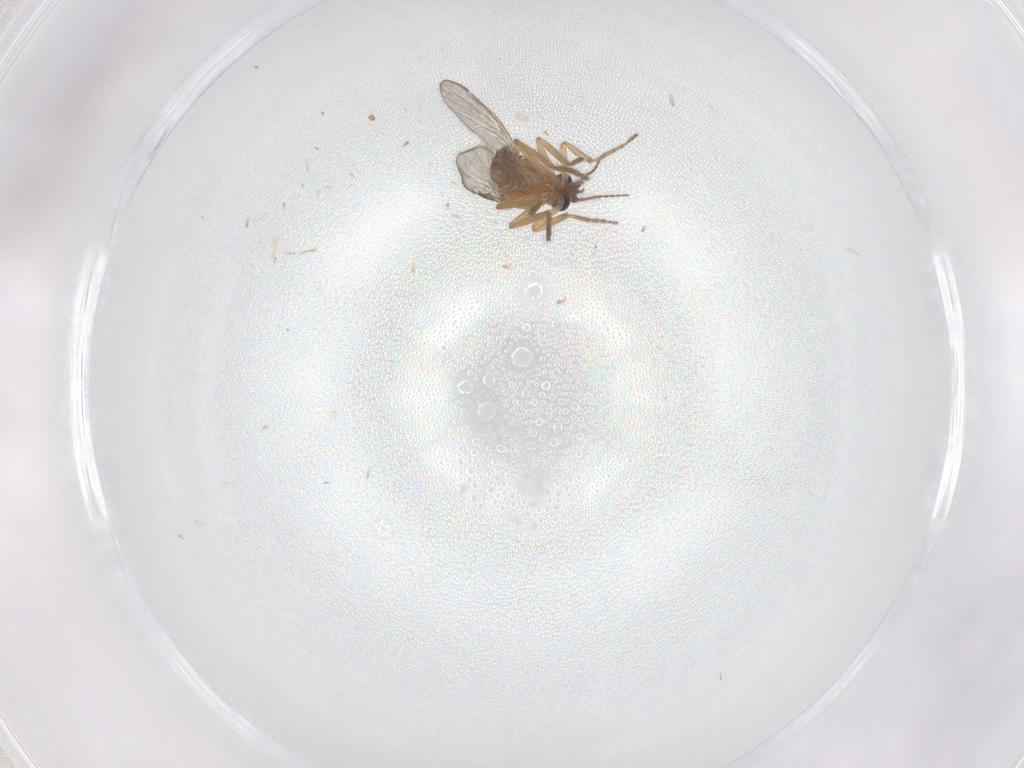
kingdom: Animalia
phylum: Arthropoda
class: Insecta
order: Diptera
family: Ceratopogonidae
